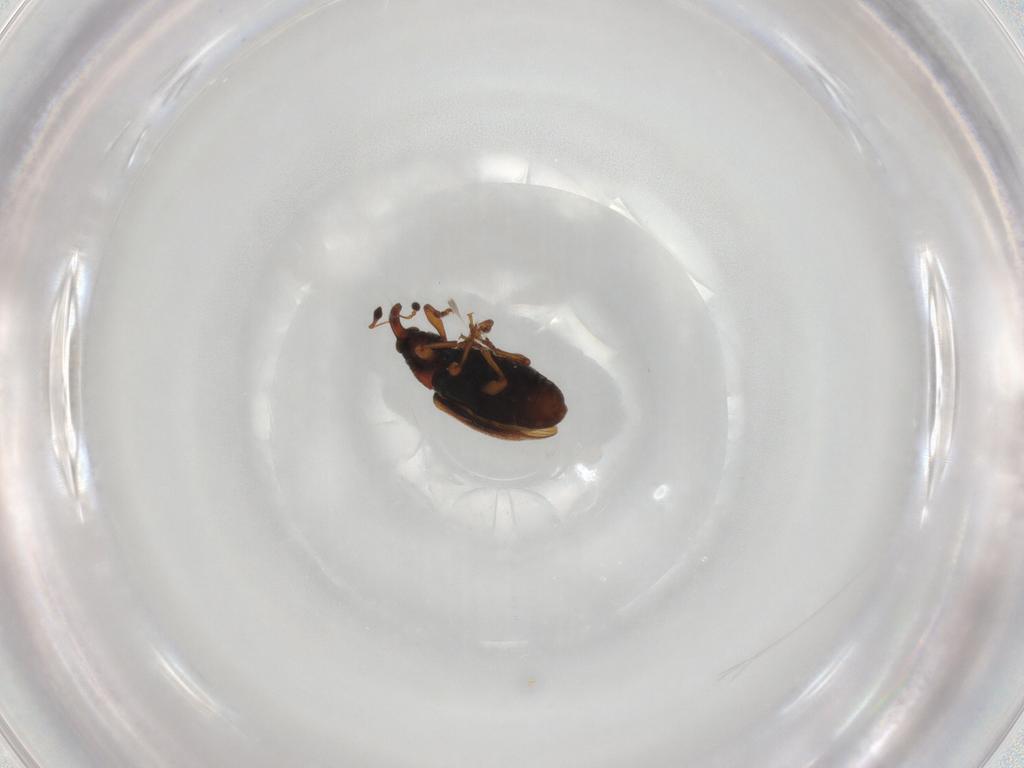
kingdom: Animalia
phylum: Arthropoda
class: Insecta
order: Coleoptera
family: Curculionidae
